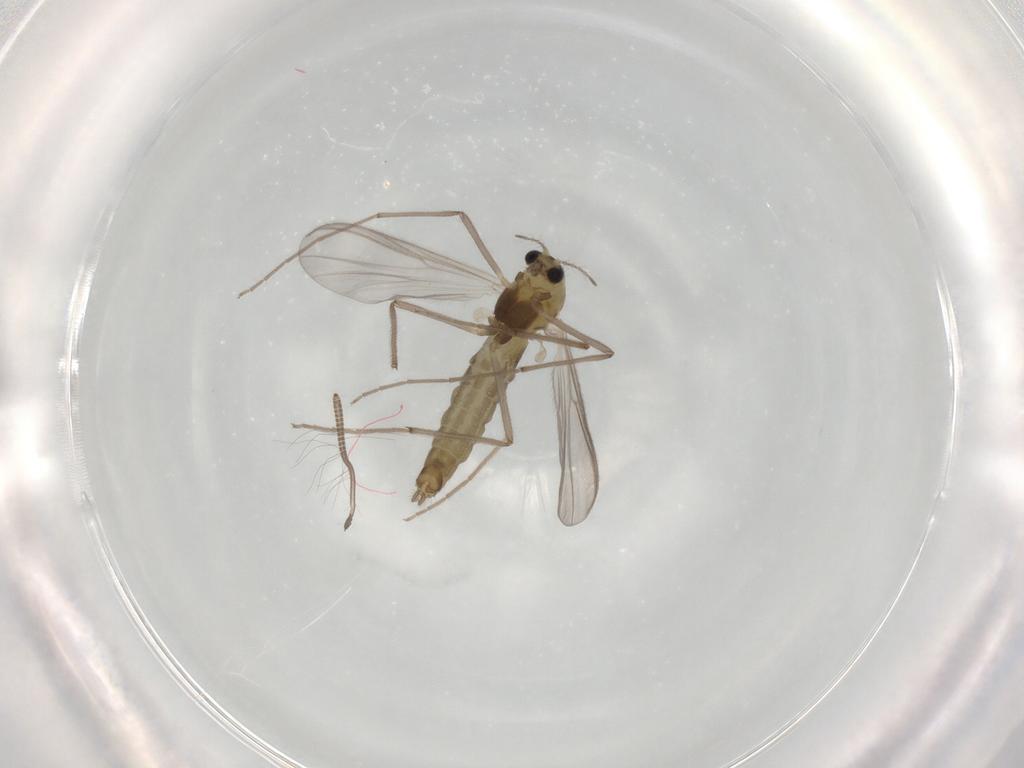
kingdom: Animalia
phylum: Arthropoda
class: Insecta
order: Diptera
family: Chironomidae
